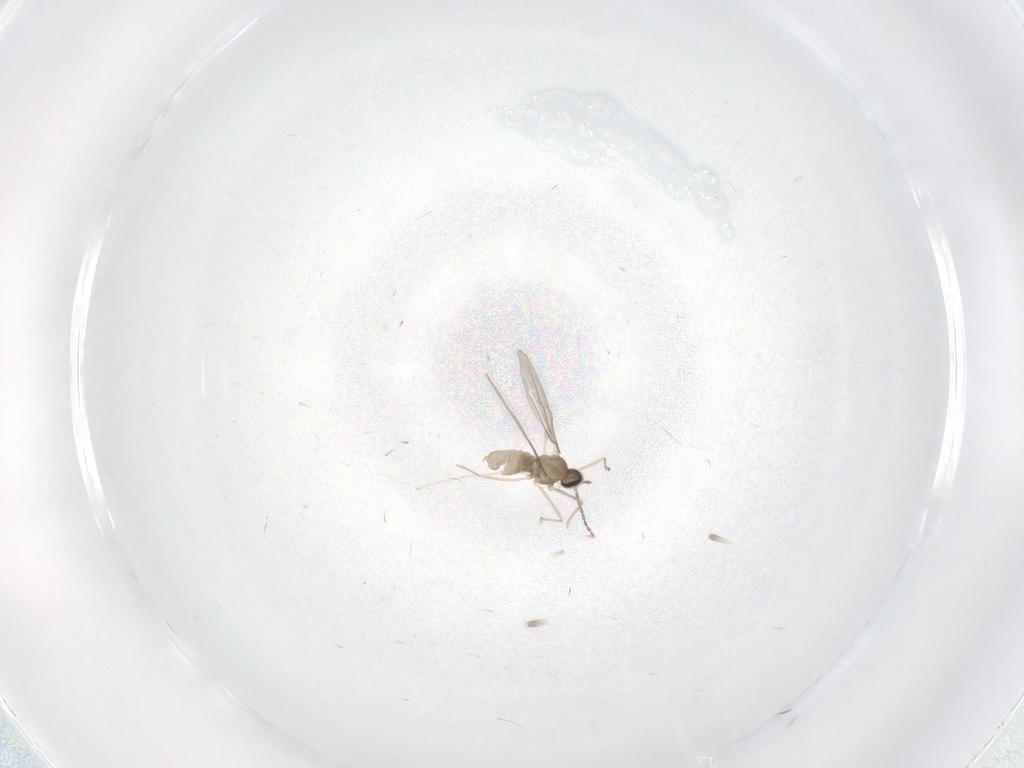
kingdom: Animalia
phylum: Arthropoda
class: Insecta
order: Diptera
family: Cecidomyiidae
